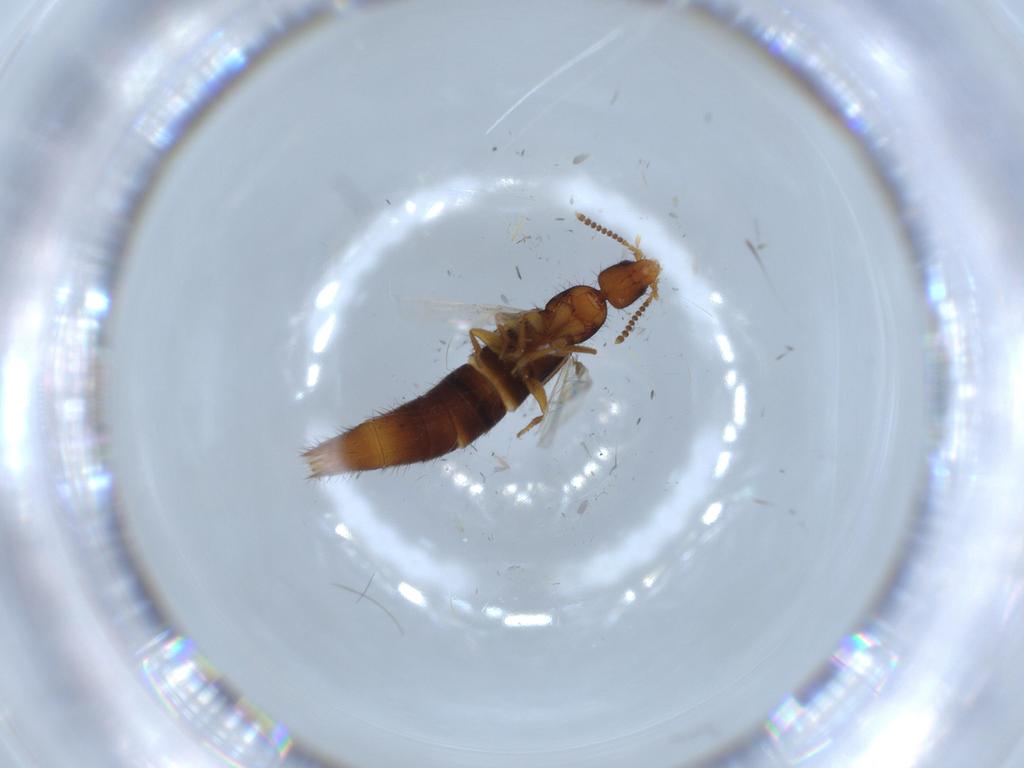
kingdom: Animalia
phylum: Arthropoda
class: Insecta
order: Coleoptera
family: Staphylinidae
